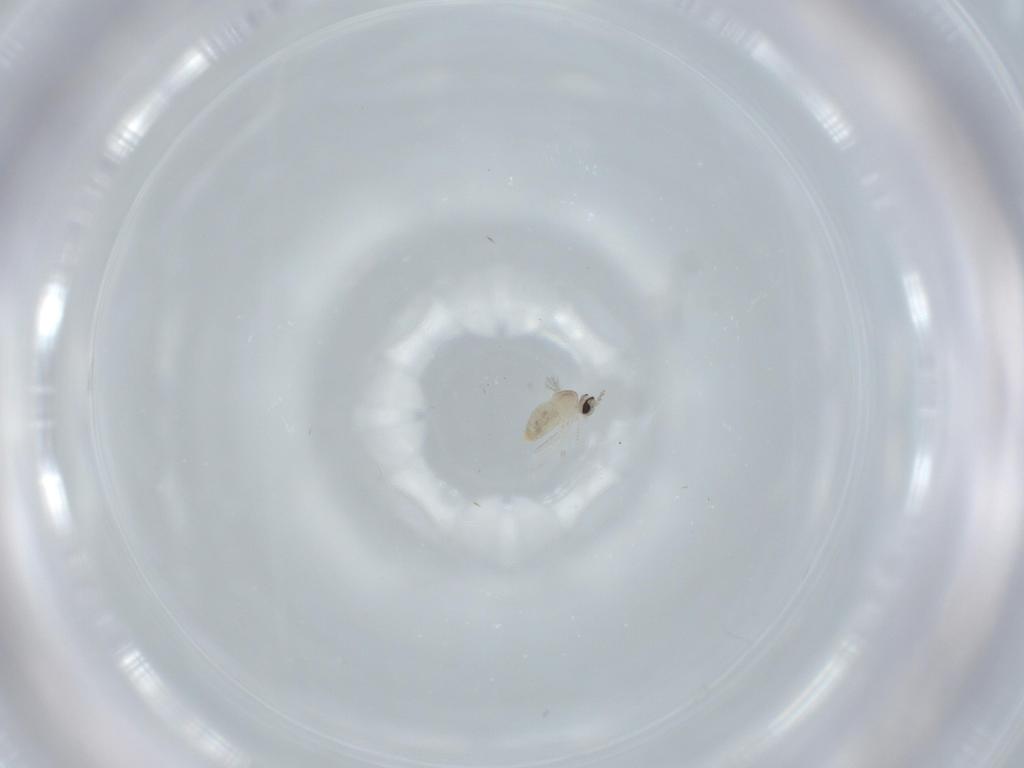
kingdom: Animalia
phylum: Arthropoda
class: Insecta
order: Diptera
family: Cecidomyiidae
